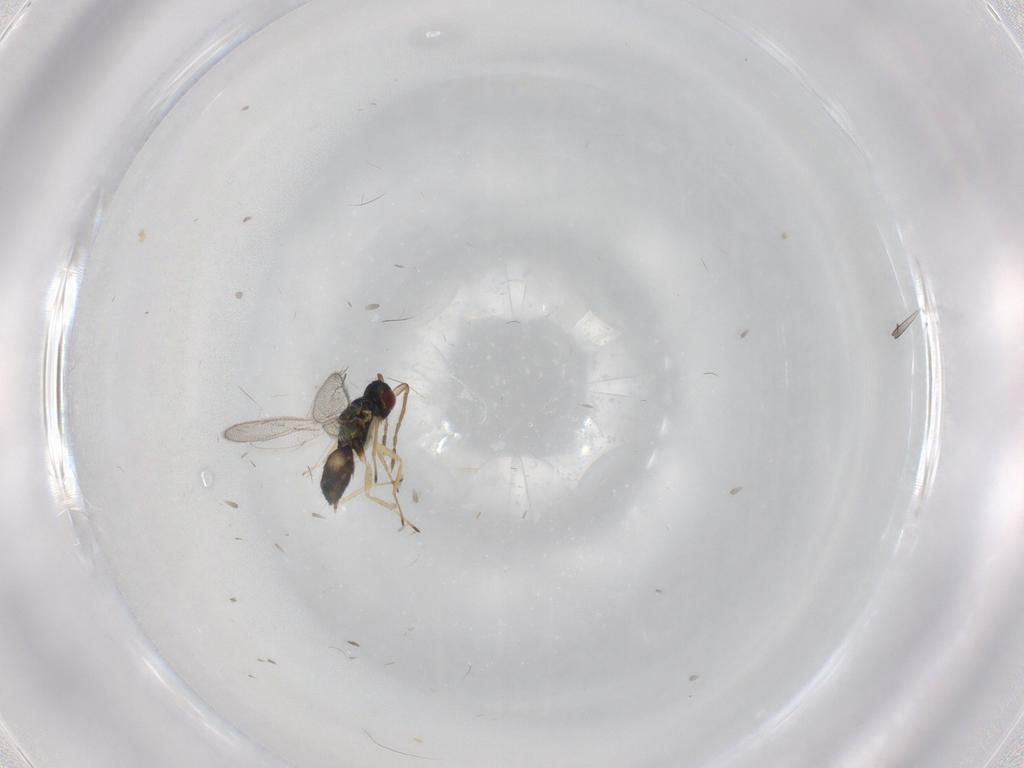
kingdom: Animalia
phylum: Arthropoda
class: Insecta
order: Hymenoptera
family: Eulophidae
